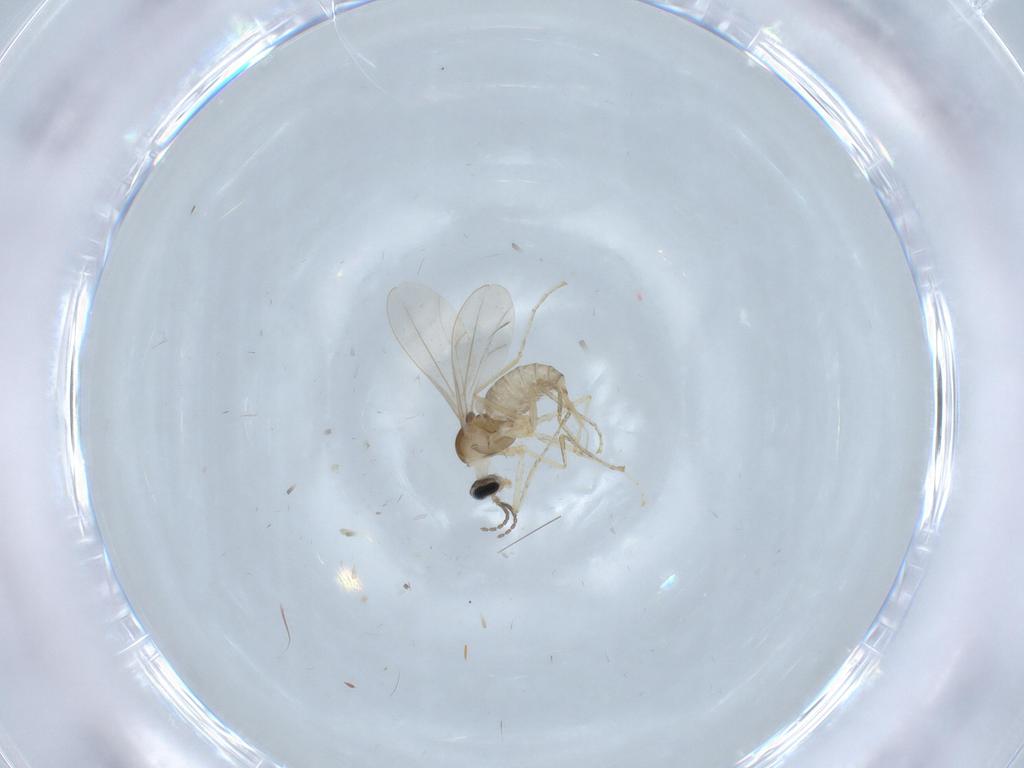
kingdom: Animalia
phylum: Arthropoda
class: Insecta
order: Diptera
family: Cecidomyiidae
